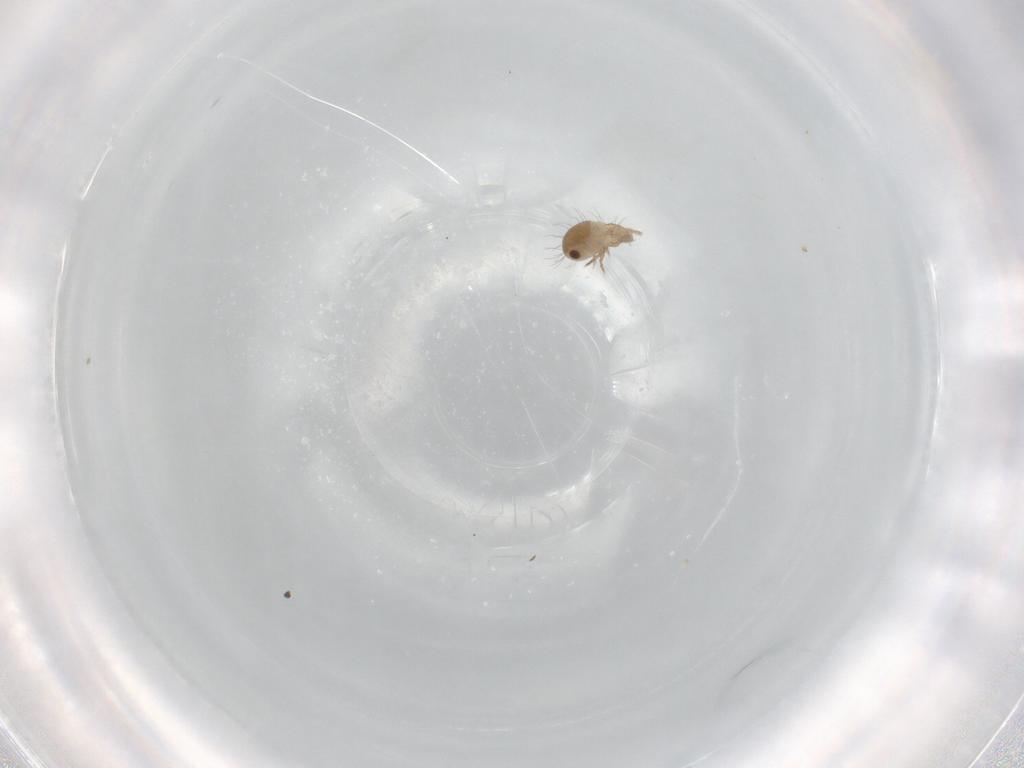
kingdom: Animalia
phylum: Arthropoda
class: Arachnida
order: Sarcoptiformes
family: Humerobatidae
